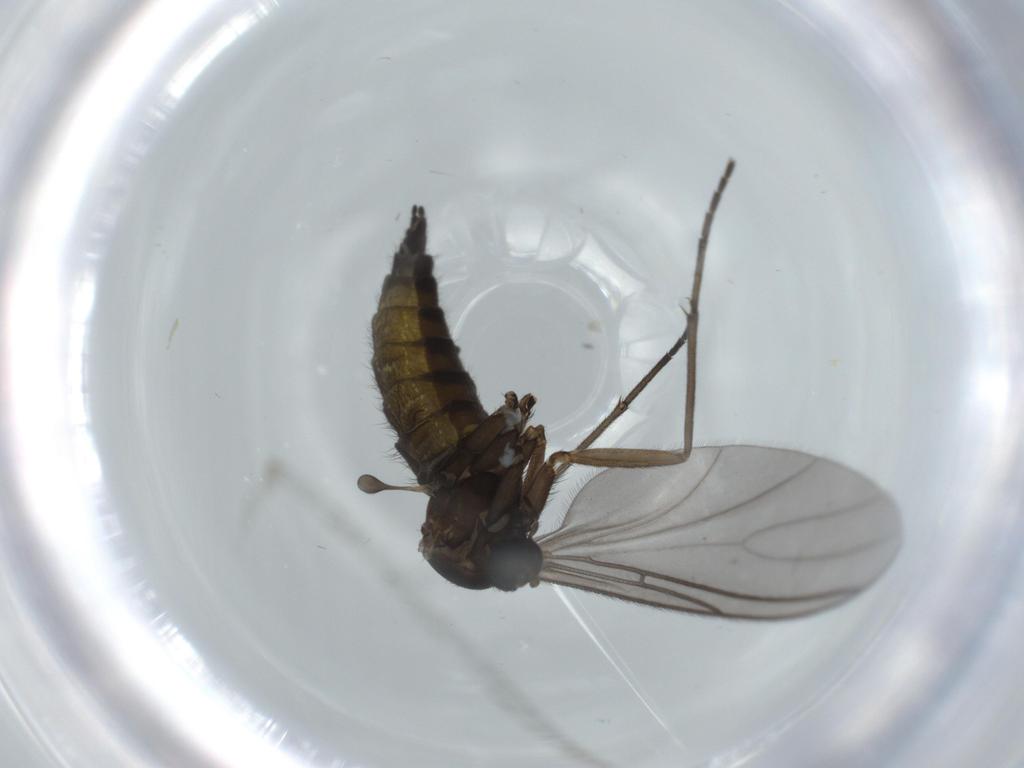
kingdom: Animalia
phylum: Arthropoda
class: Insecta
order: Diptera
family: Sciaridae
